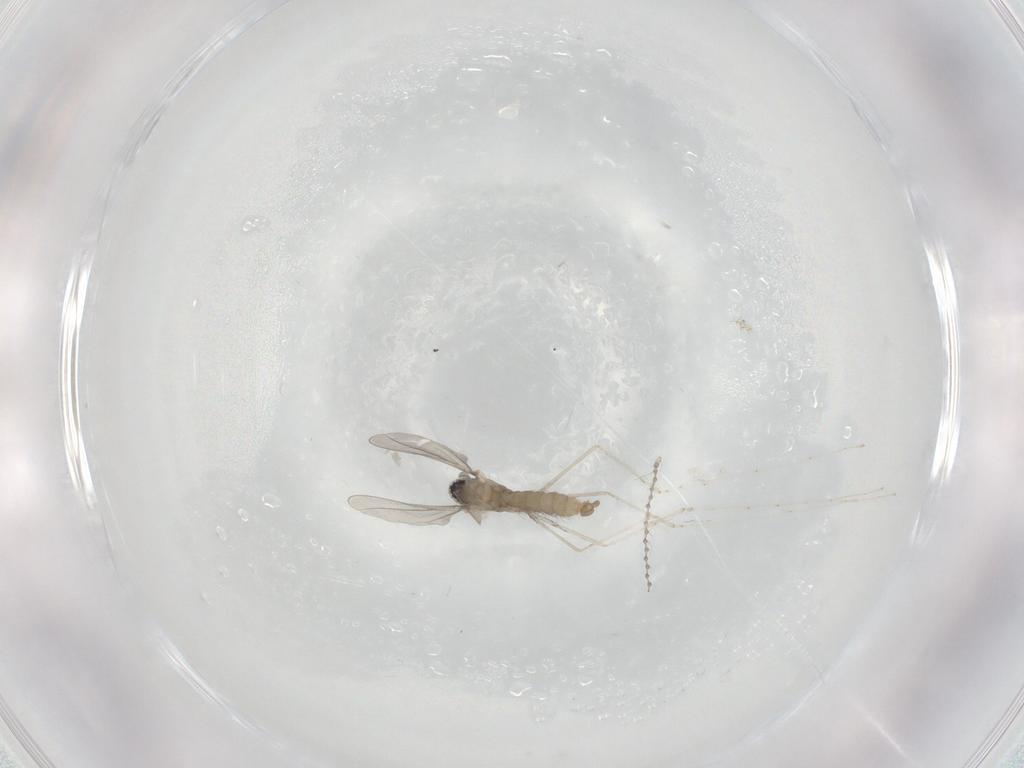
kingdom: Animalia
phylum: Arthropoda
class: Insecta
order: Diptera
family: Cecidomyiidae
